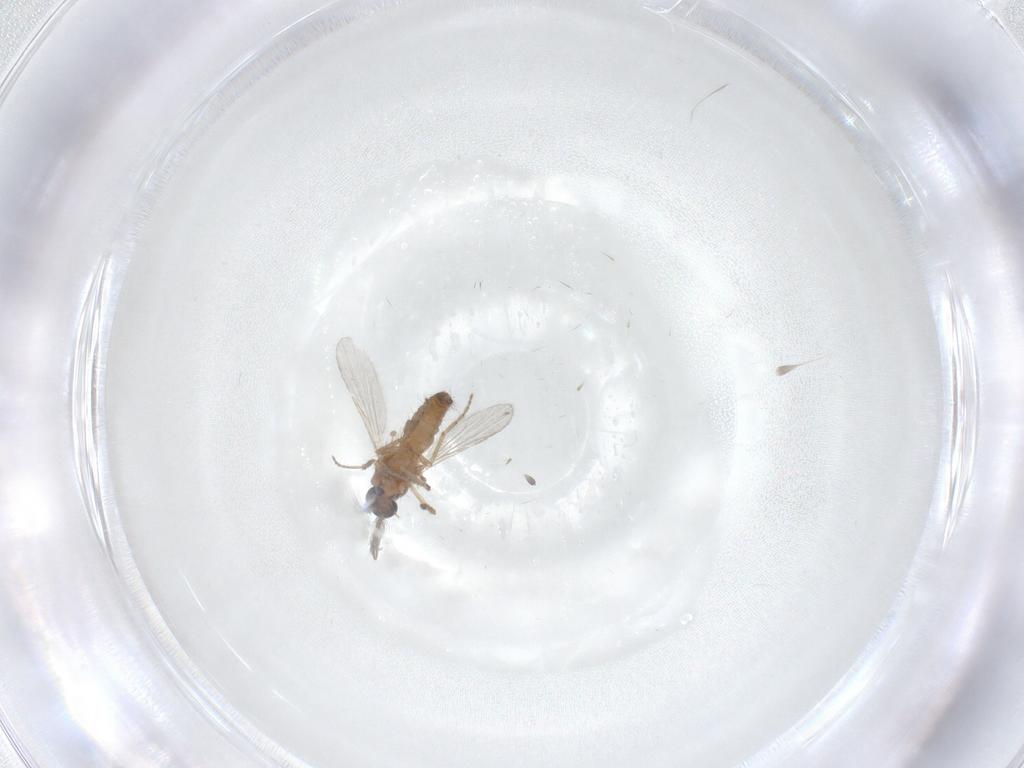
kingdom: Animalia
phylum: Arthropoda
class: Insecta
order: Diptera
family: Ceratopogonidae
